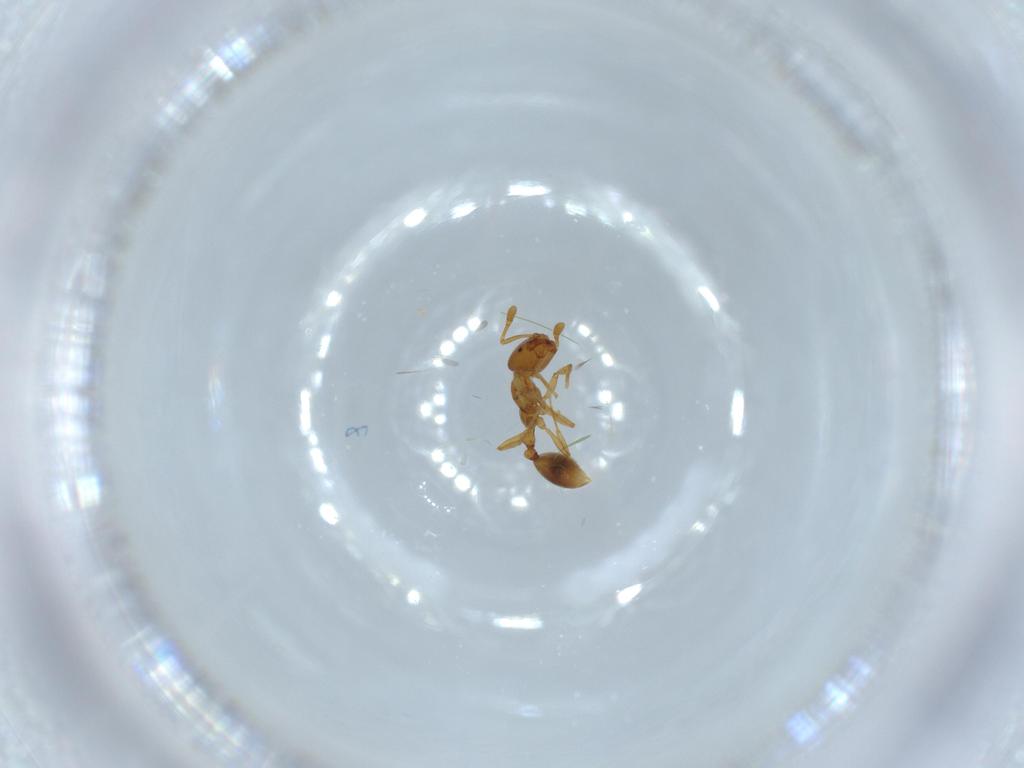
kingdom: Animalia
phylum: Arthropoda
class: Insecta
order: Hymenoptera
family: Formicidae
